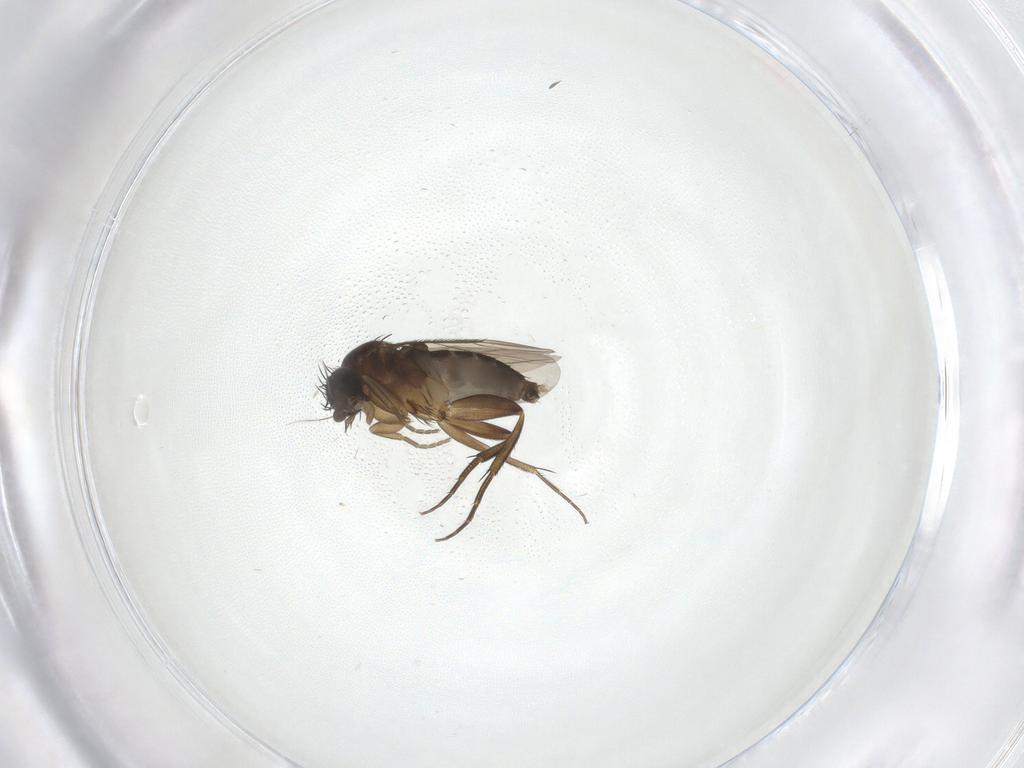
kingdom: Animalia
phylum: Arthropoda
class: Insecta
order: Diptera
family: Phoridae
